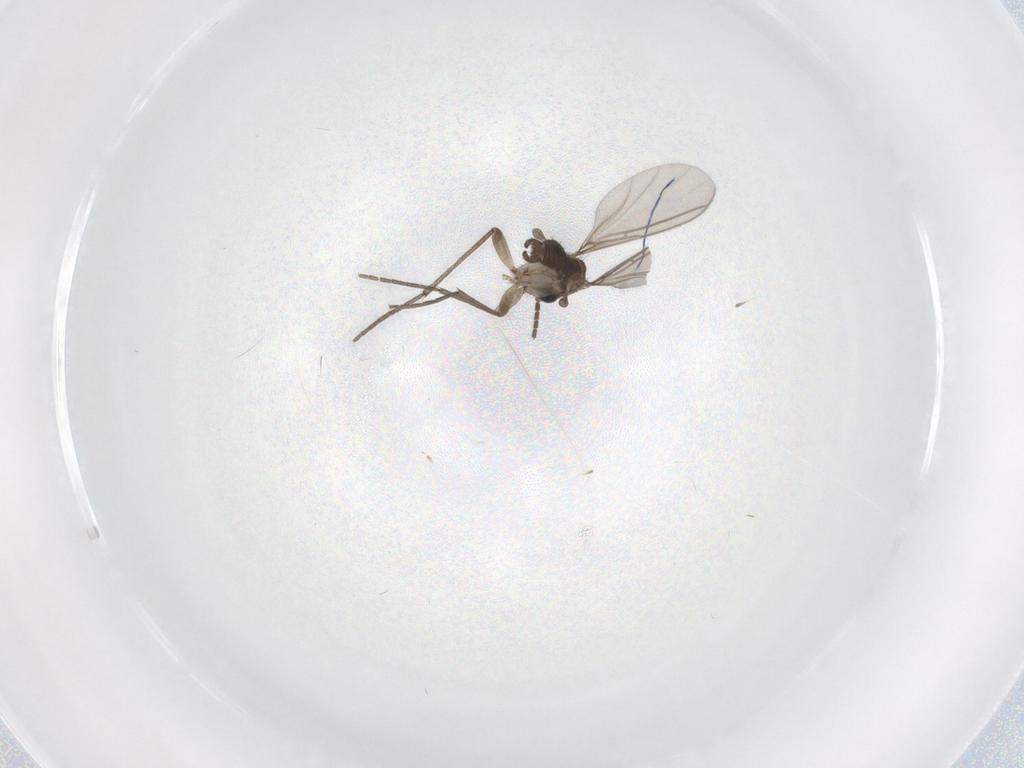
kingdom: Animalia
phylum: Arthropoda
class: Insecta
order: Diptera
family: Sciaridae
